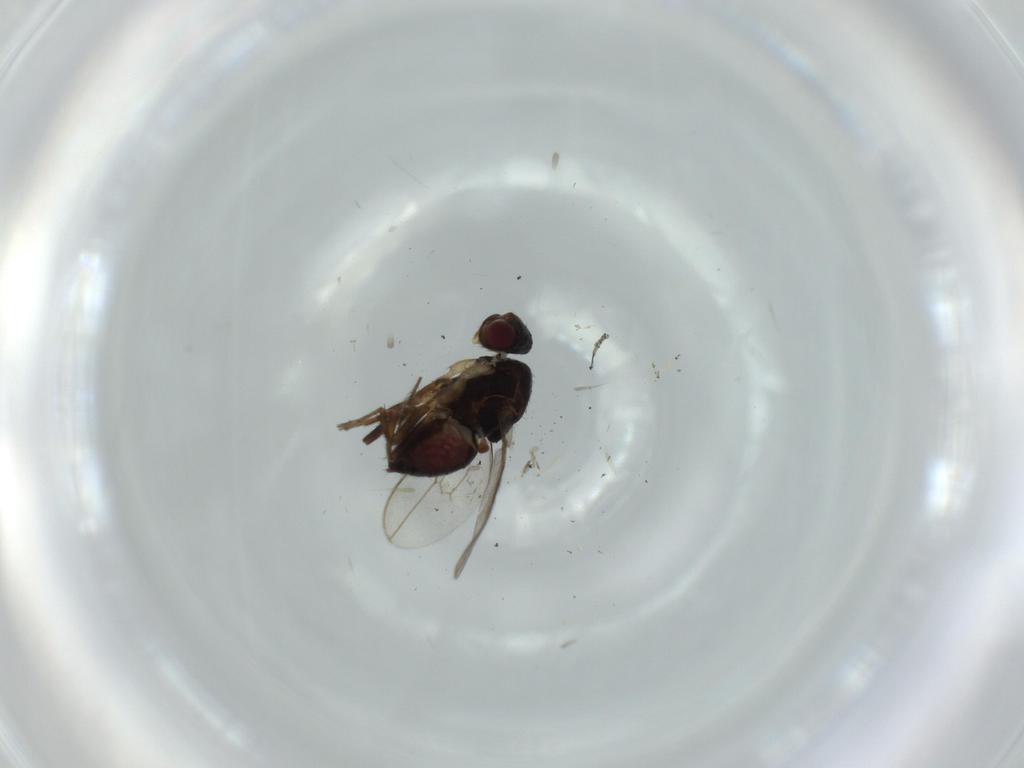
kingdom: Animalia
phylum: Arthropoda
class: Insecta
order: Diptera
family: Sphaeroceridae
